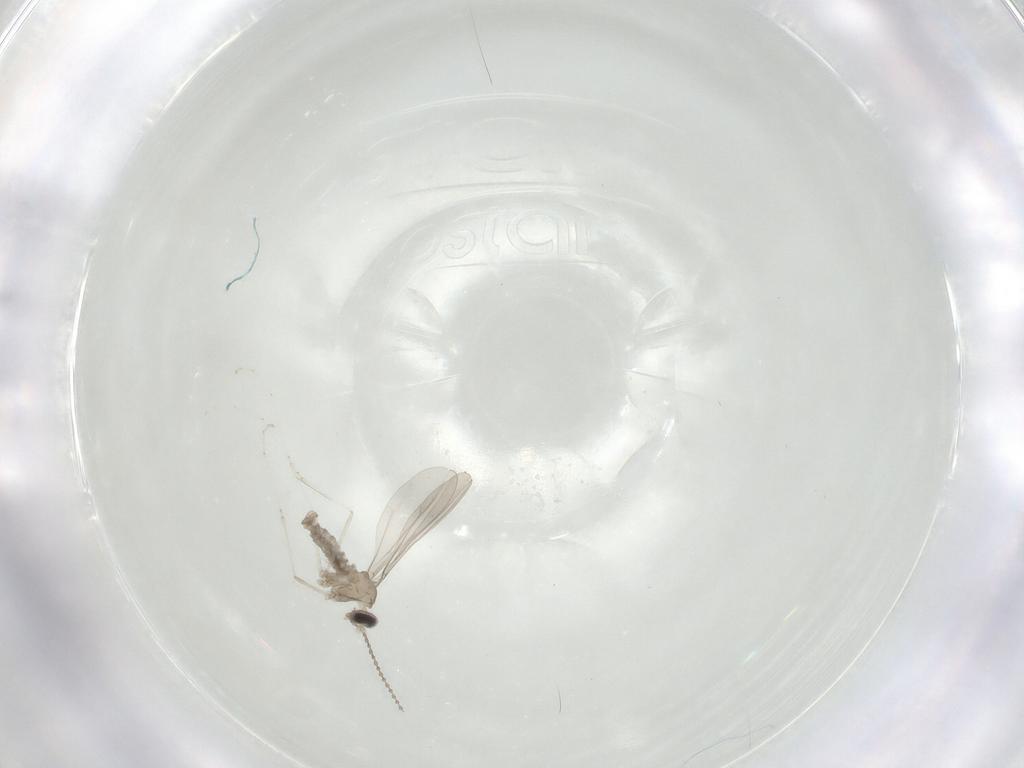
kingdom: Animalia
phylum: Arthropoda
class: Insecta
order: Diptera
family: Cecidomyiidae
